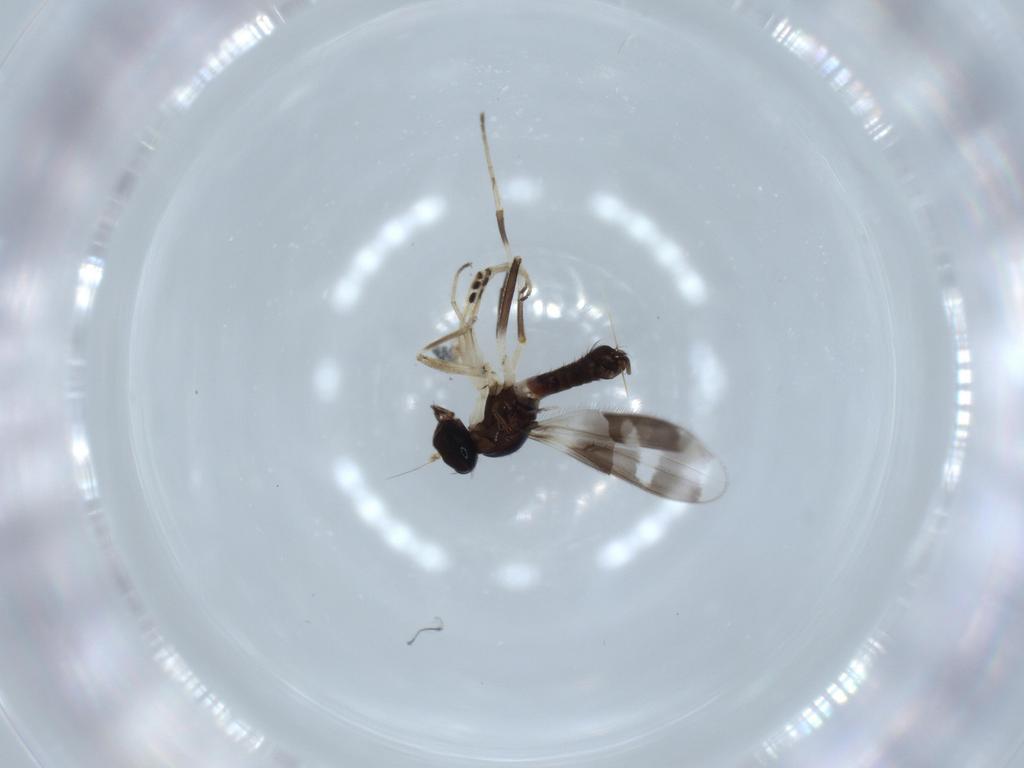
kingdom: Animalia
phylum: Arthropoda
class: Insecta
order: Diptera
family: Hybotidae
